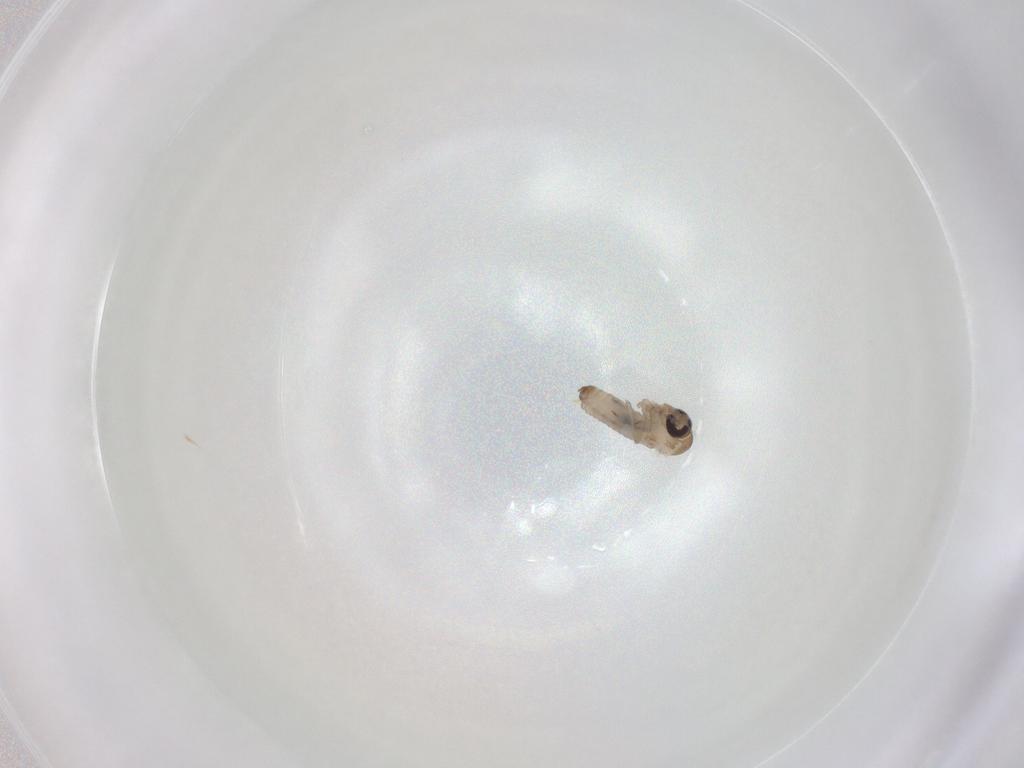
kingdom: Animalia
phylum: Arthropoda
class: Insecta
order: Diptera
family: Psychodidae
